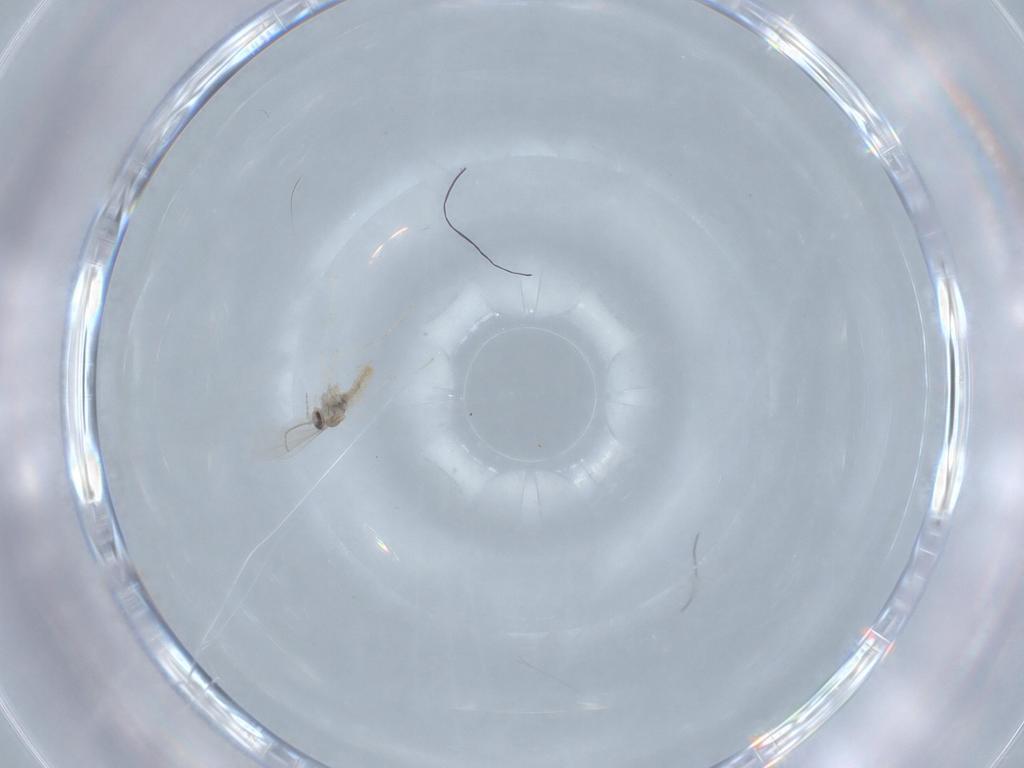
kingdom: Animalia
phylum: Arthropoda
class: Insecta
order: Diptera
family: Cecidomyiidae
